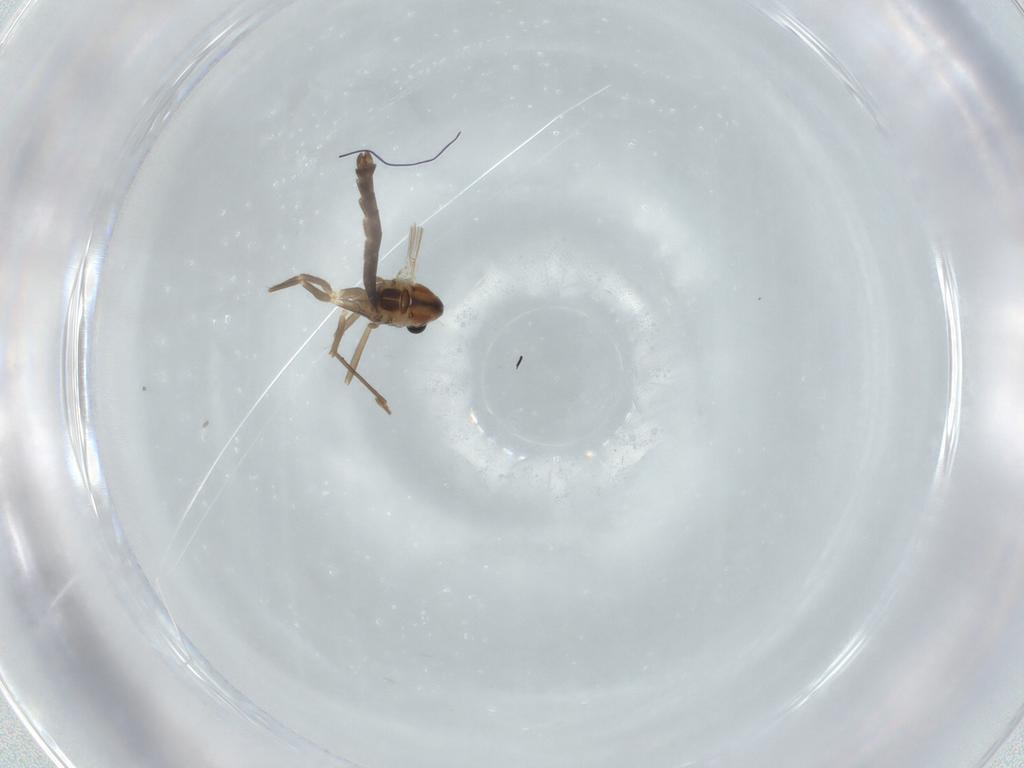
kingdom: Animalia
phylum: Arthropoda
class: Insecta
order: Diptera
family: Chironomidae
